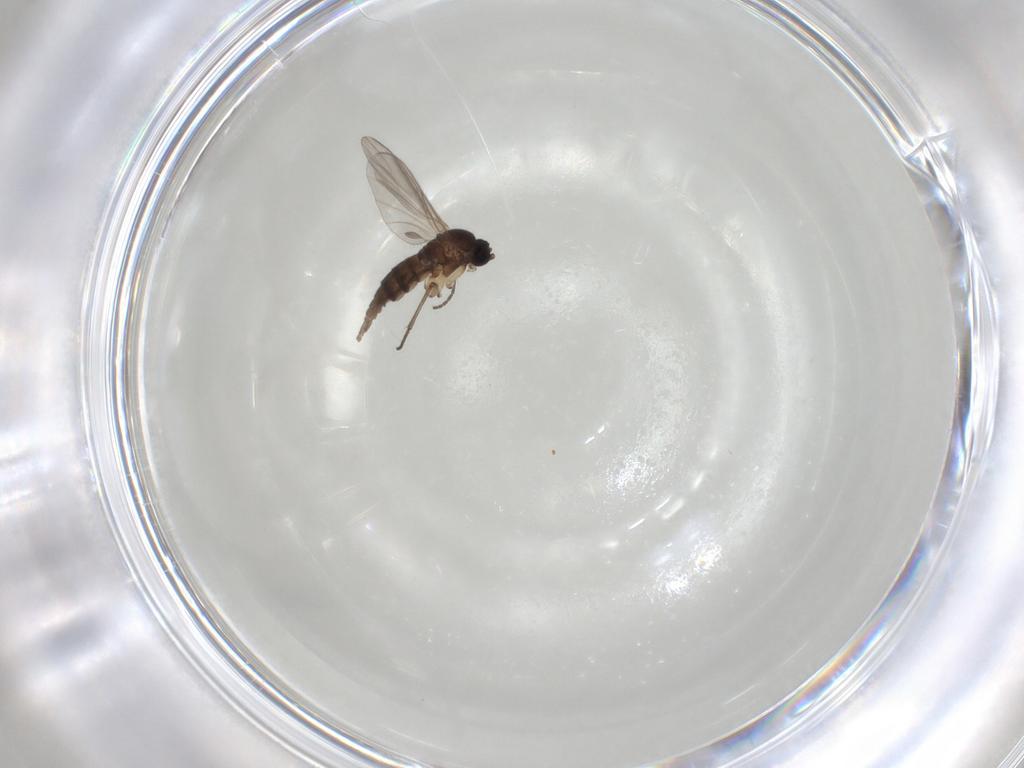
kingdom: Animalia
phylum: Arthropoda
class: Insecta
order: Diptera
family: Sciaridae
